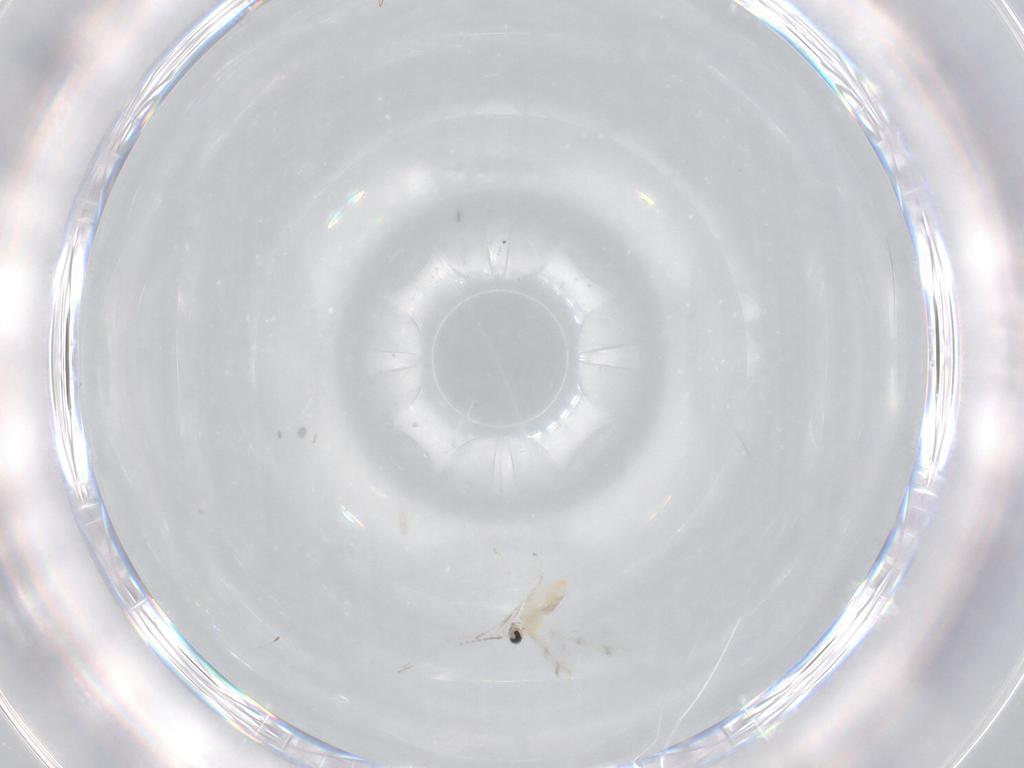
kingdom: Animalia
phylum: Arthropoda
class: Insecta
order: Diptera
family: Cecidomyiidae
